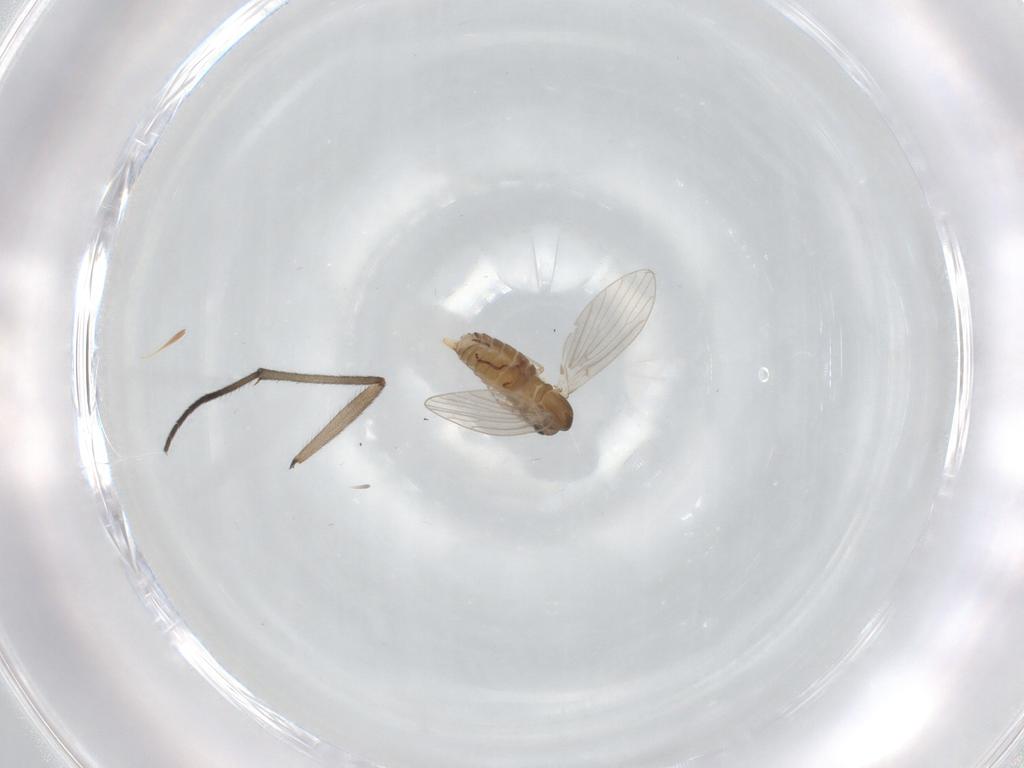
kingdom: Animalia
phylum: Arthropoda
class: Insecta
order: Diptera
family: Sciaridae
